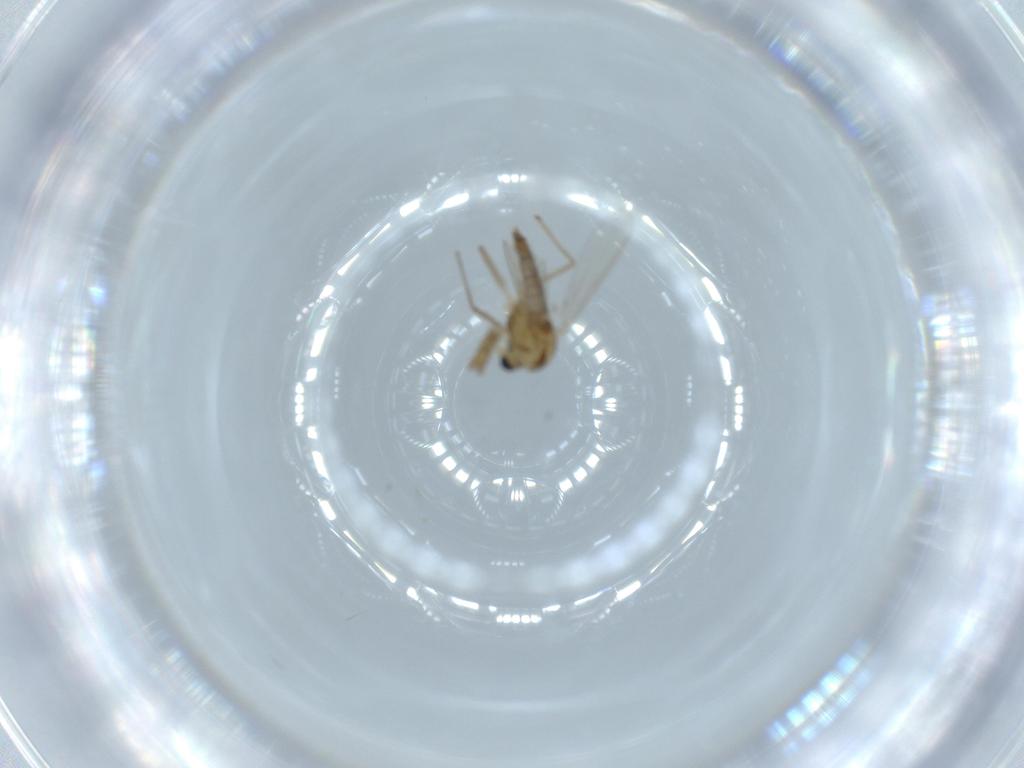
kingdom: Animalia
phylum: Arthropoda
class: Insecta
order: Diptera
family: Chironomidae
